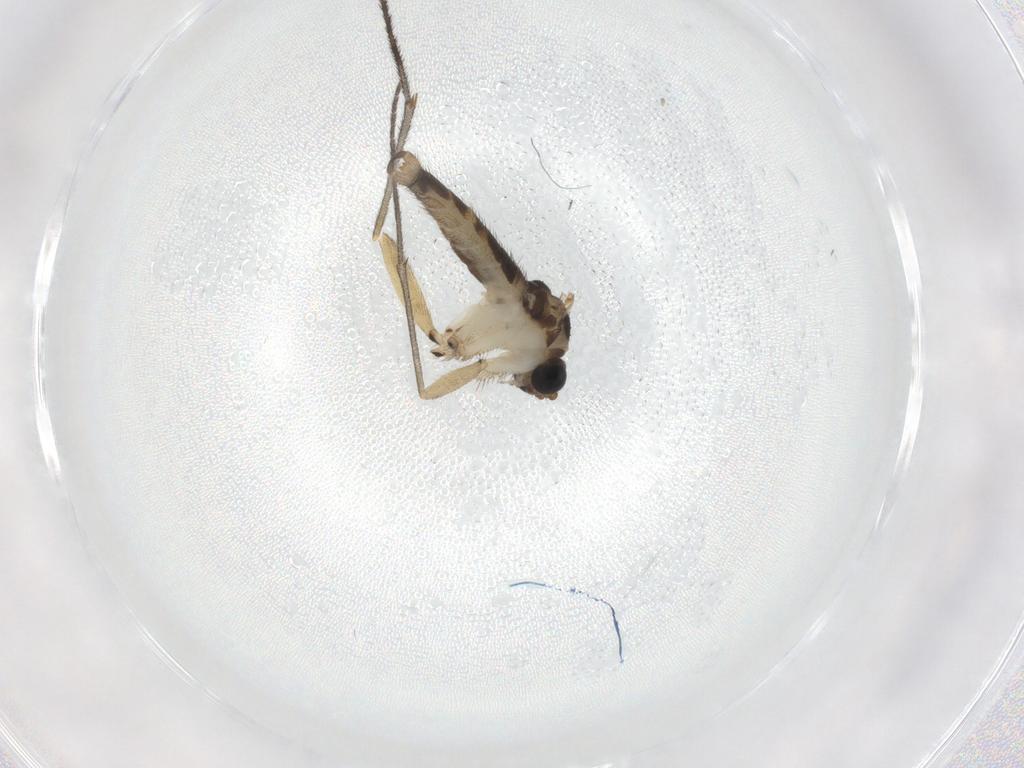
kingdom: Animalia
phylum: Arthropoda
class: Insecta
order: Diptera
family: Sciaridae
